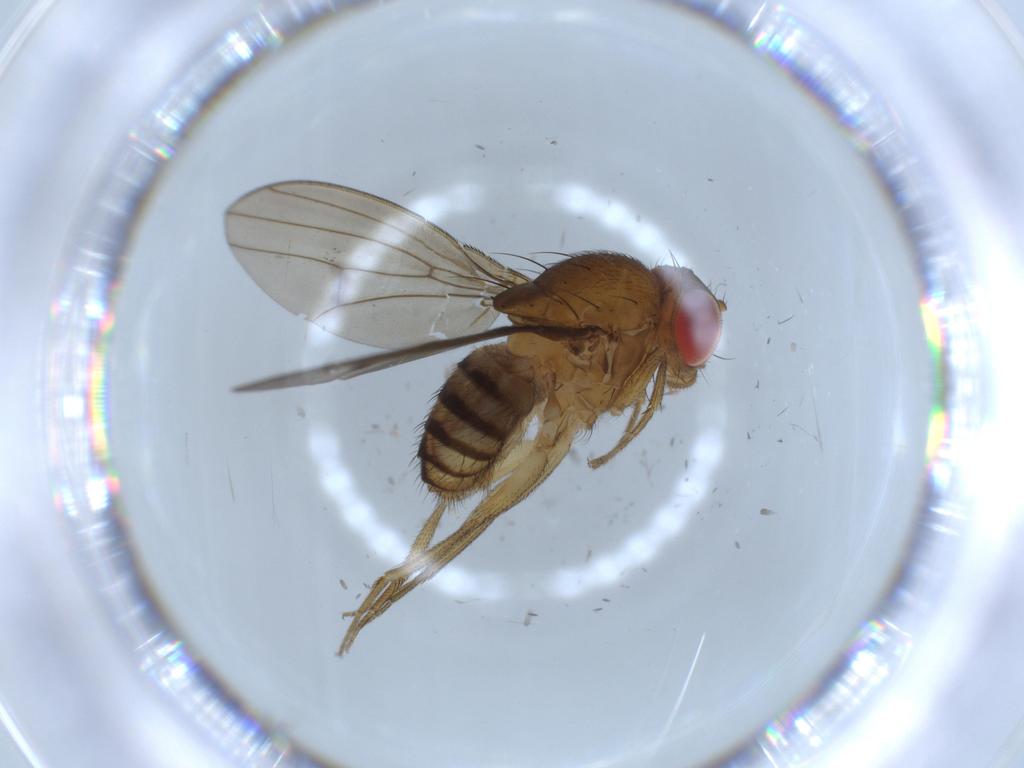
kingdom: Animalia
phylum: Arthropoda
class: Insecta
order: Diptera
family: Drosophilidae
